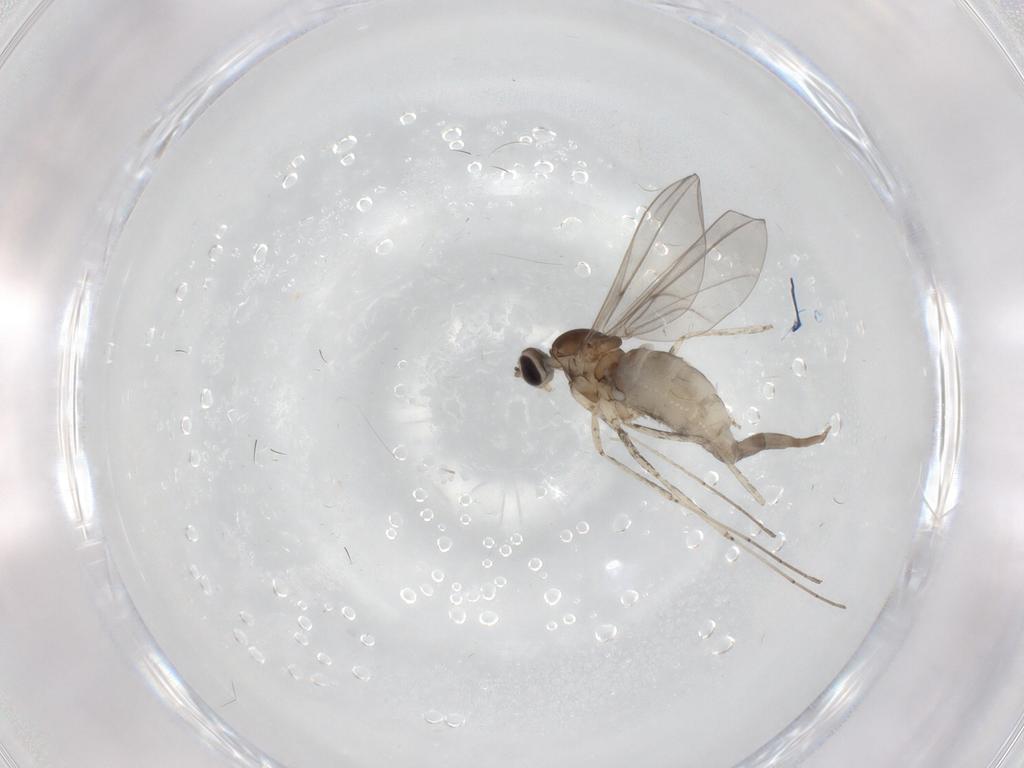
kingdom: Animalia
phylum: Arthropoda
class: Insecta
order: Diptera
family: Cecidomyiidae
